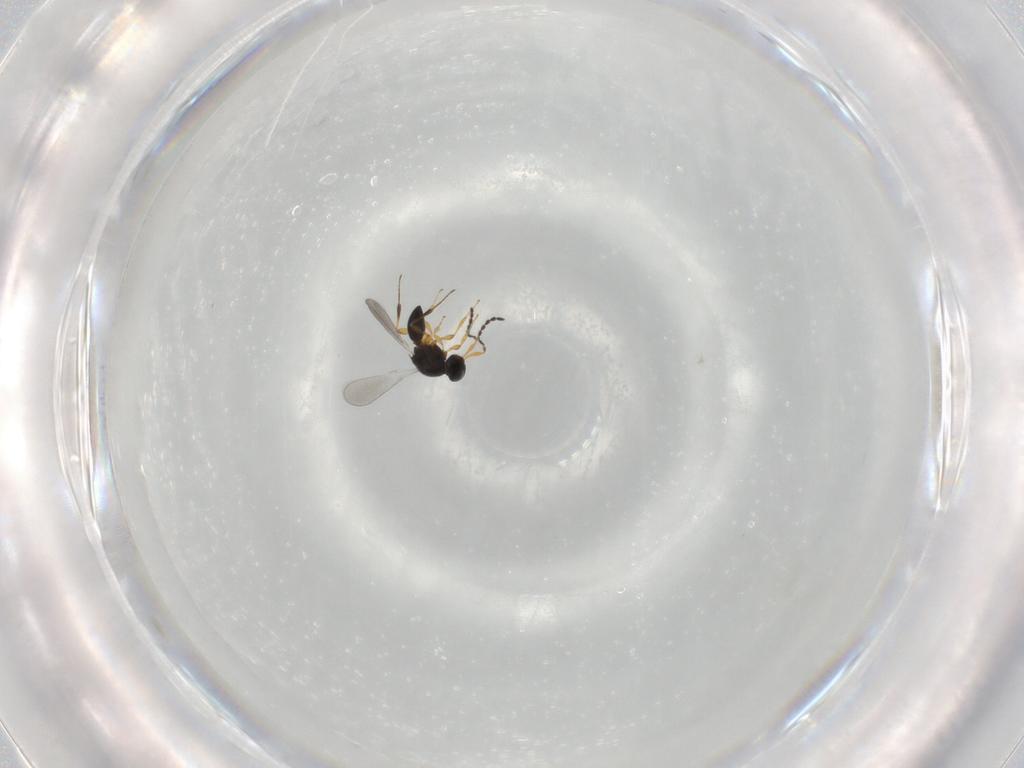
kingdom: Animalia
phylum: Arthropoda
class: Insecta
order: Hymenoptera
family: Platygastridae
